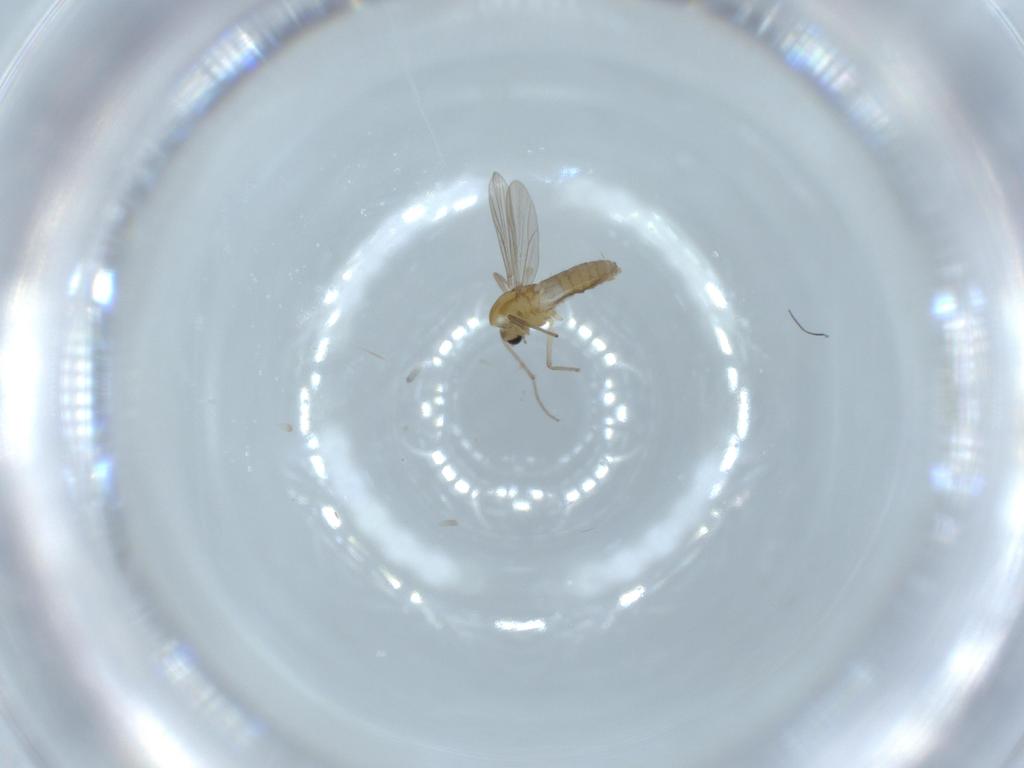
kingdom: Animalia
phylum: Arthropoda
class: Insecta
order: Diptera
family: Chironomidae
